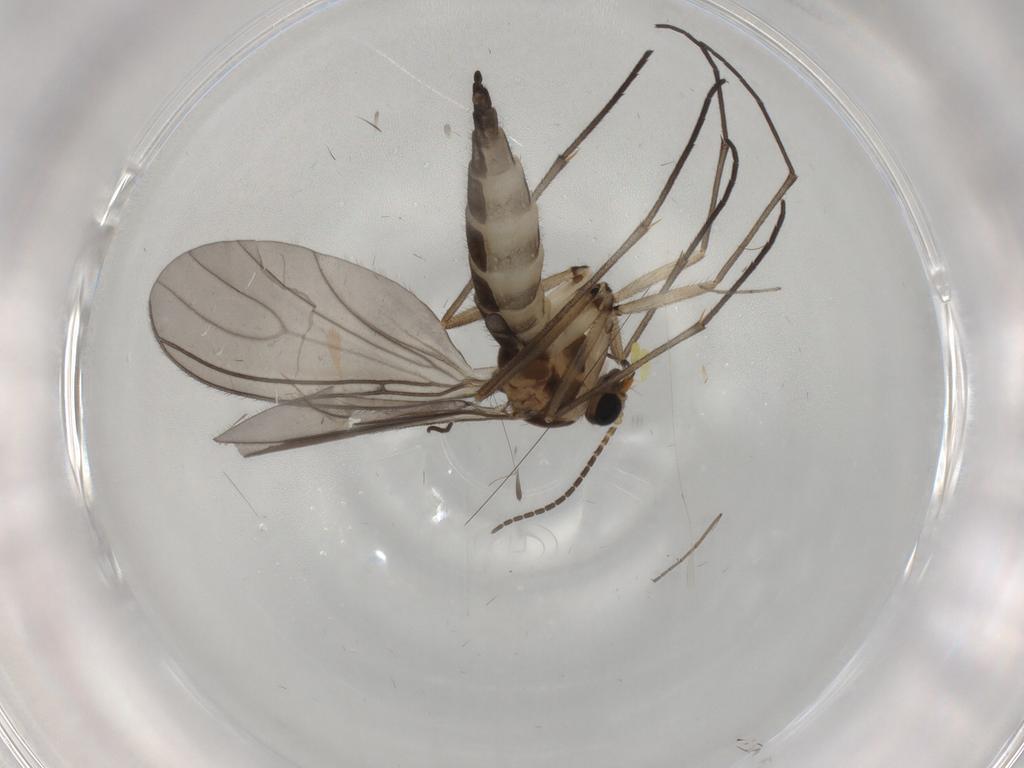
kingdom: Animalia
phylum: Arthropoda
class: Insecta
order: Diptera
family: Sciaridae
